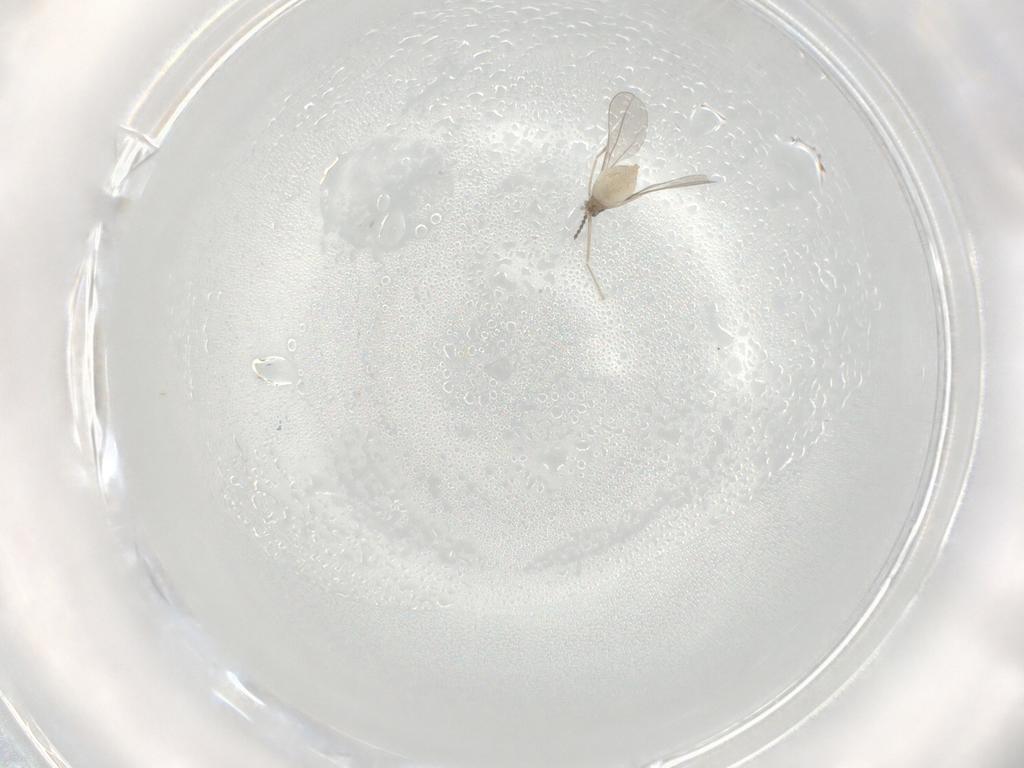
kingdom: Animalia
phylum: Arthropoda
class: Insecta
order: Diptera
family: Cecidomyiidae
